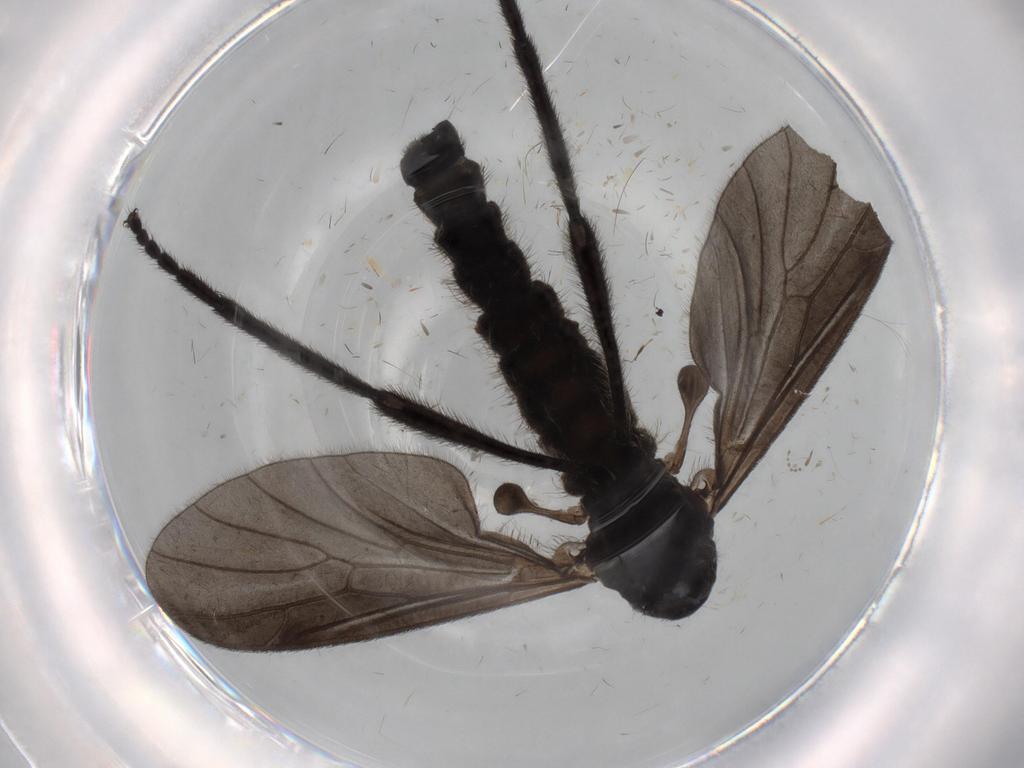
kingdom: Animalia
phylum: Arthropoda
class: Insecta
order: Diptera
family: Bibionidae
